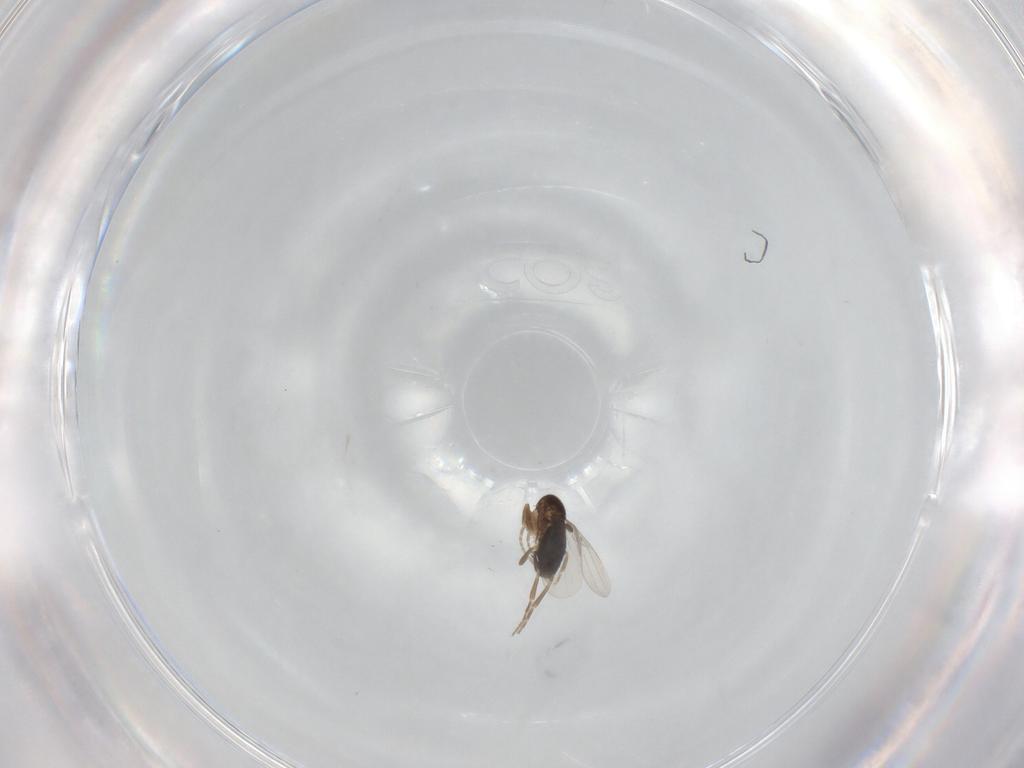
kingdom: Animalia
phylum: Arthropoda
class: Insecta
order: Diptera
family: Phoridae
